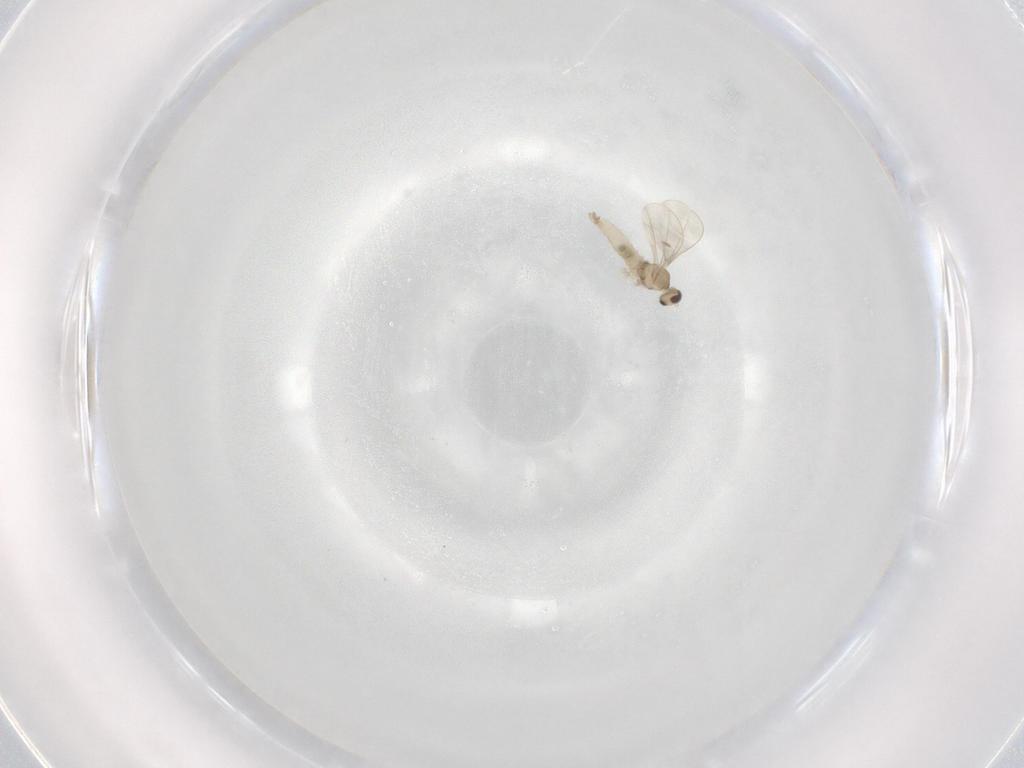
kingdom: Animalia
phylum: Arthropoda
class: Insecta
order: Diptera
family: Cecidomyiidae
